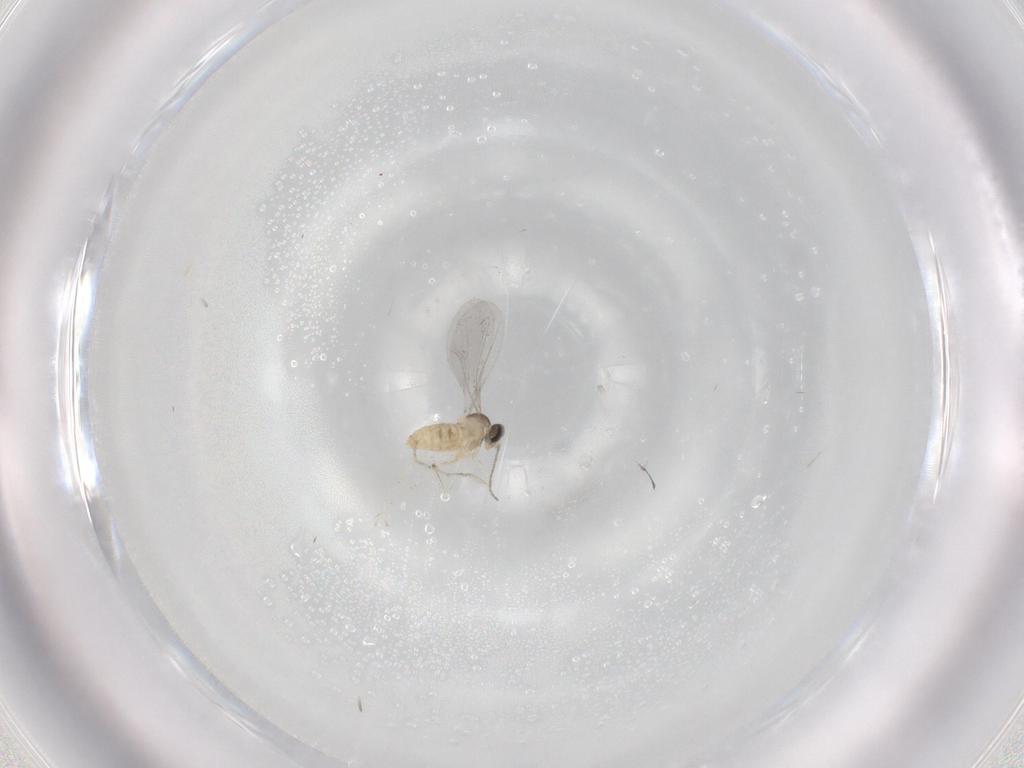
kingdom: Animalia
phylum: Arthropoda
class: Insecta
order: Diptera
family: Cecidomyiidae
